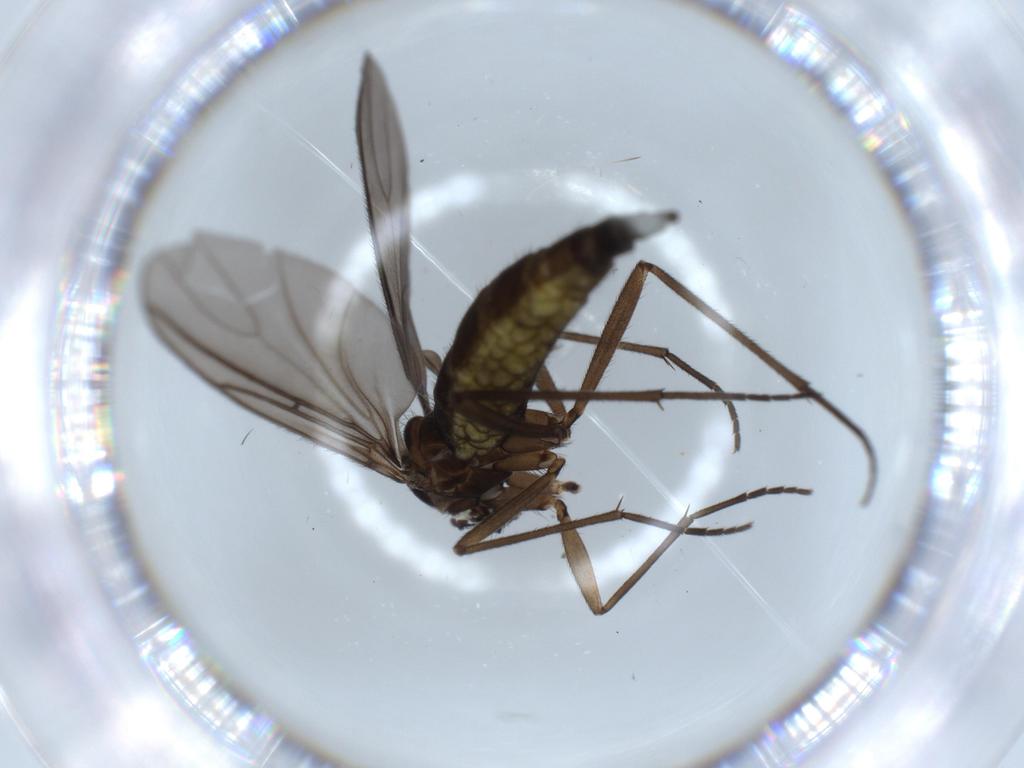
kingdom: Animalia
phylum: Arthropoda
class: Insecta
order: Diptera
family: Sciaridae
